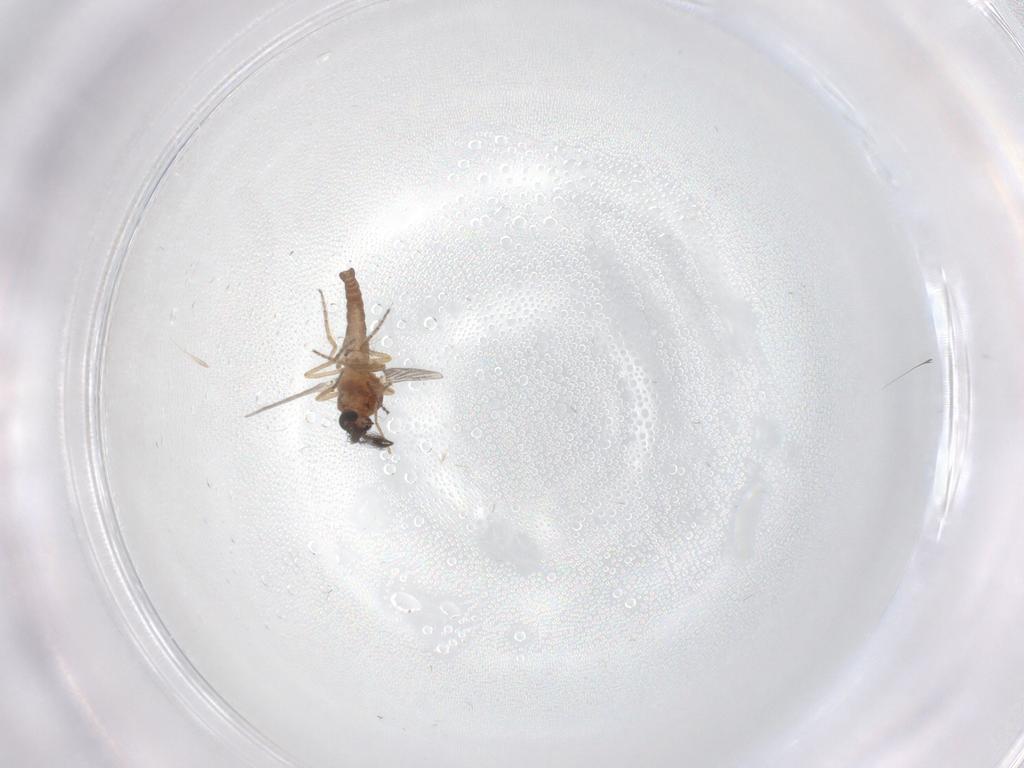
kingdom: Animalia
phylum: Arthropoda
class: Insecta
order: Diptera
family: Ceratopogonidae
